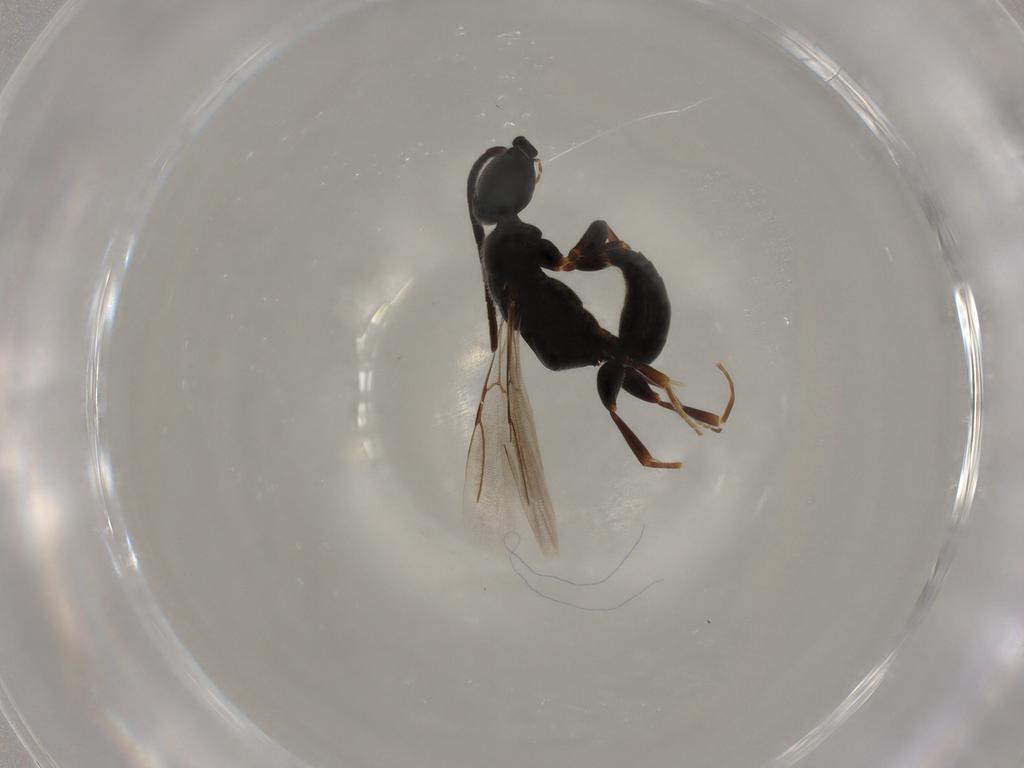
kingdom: Animalia
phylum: Arthropoda
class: Insecta
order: Hymenoptera
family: Bethylidae
